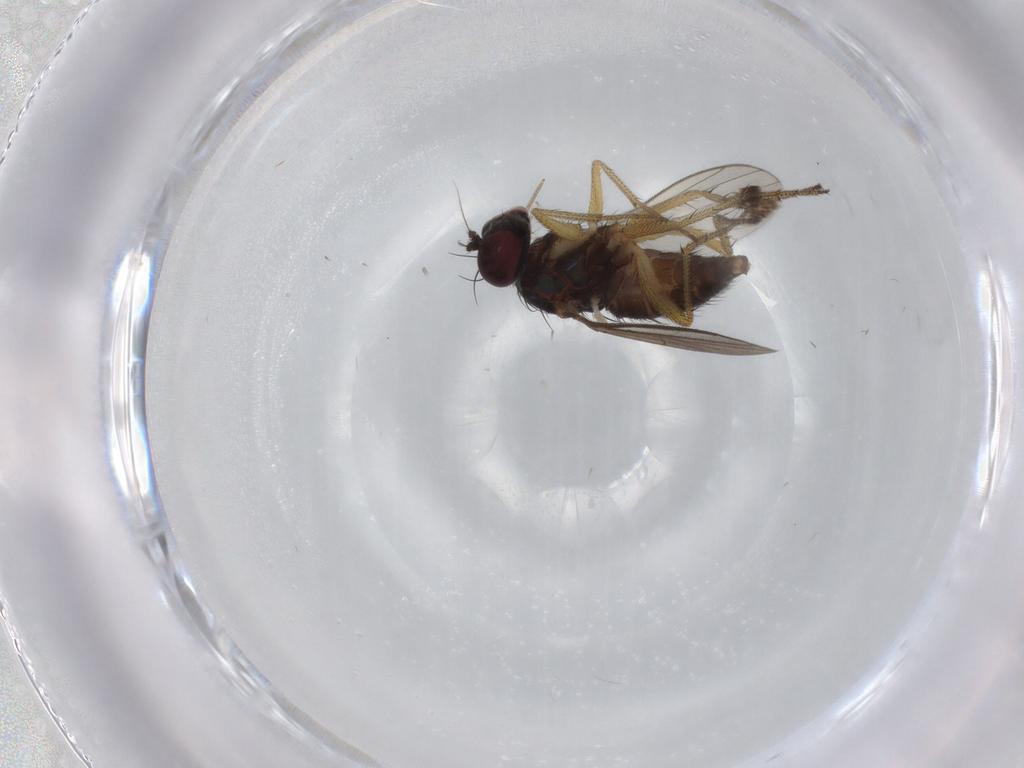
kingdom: Animalia
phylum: Arthropoda
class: Insecta
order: Diptera
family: Dolichopodidae
